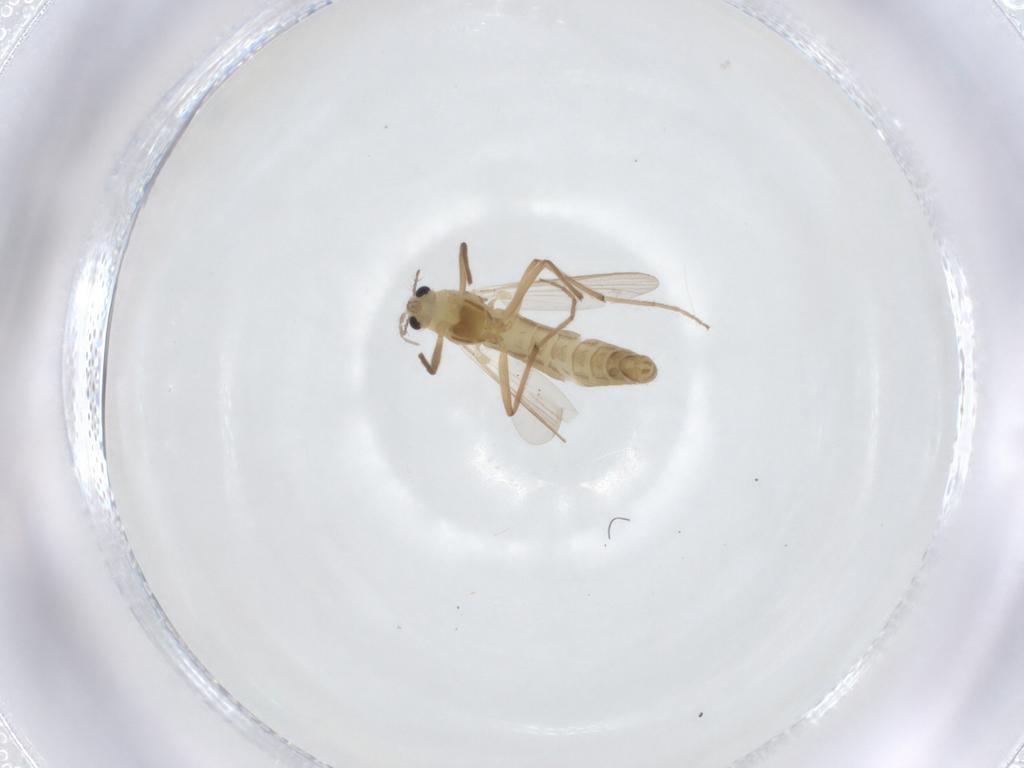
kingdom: Animalia
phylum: Arthropoda
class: Insecta
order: Diptera
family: Chironomidae
